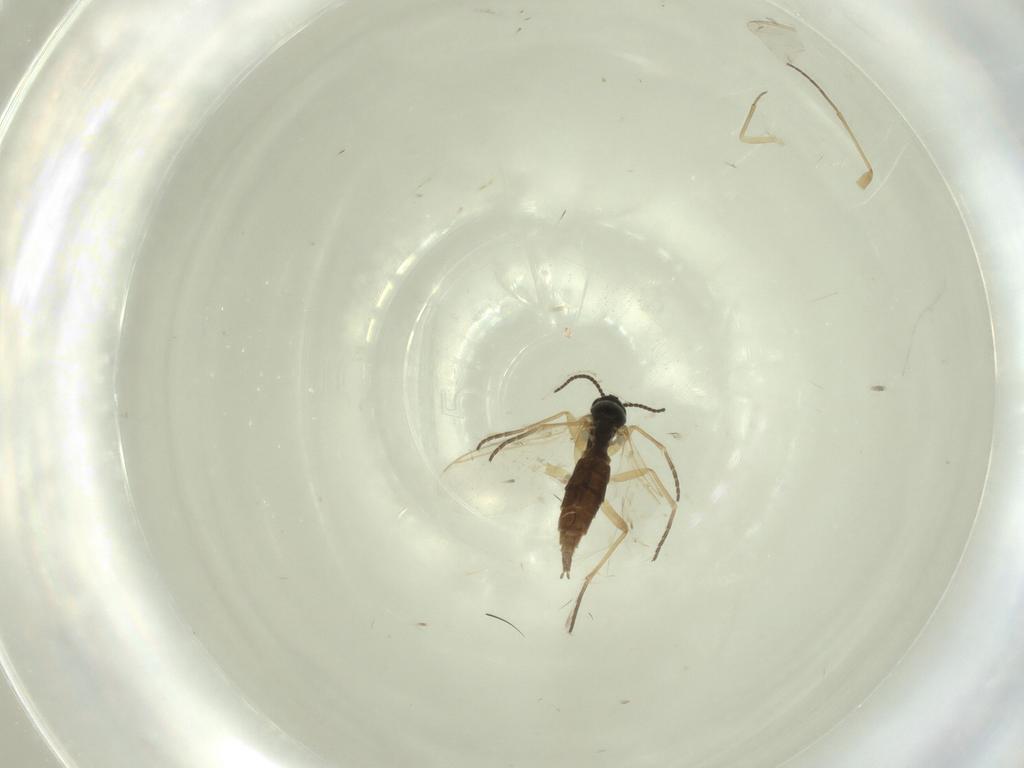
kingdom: Animalia
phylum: Arthropoda
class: Insecta
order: Diptera
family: Sciaridae
